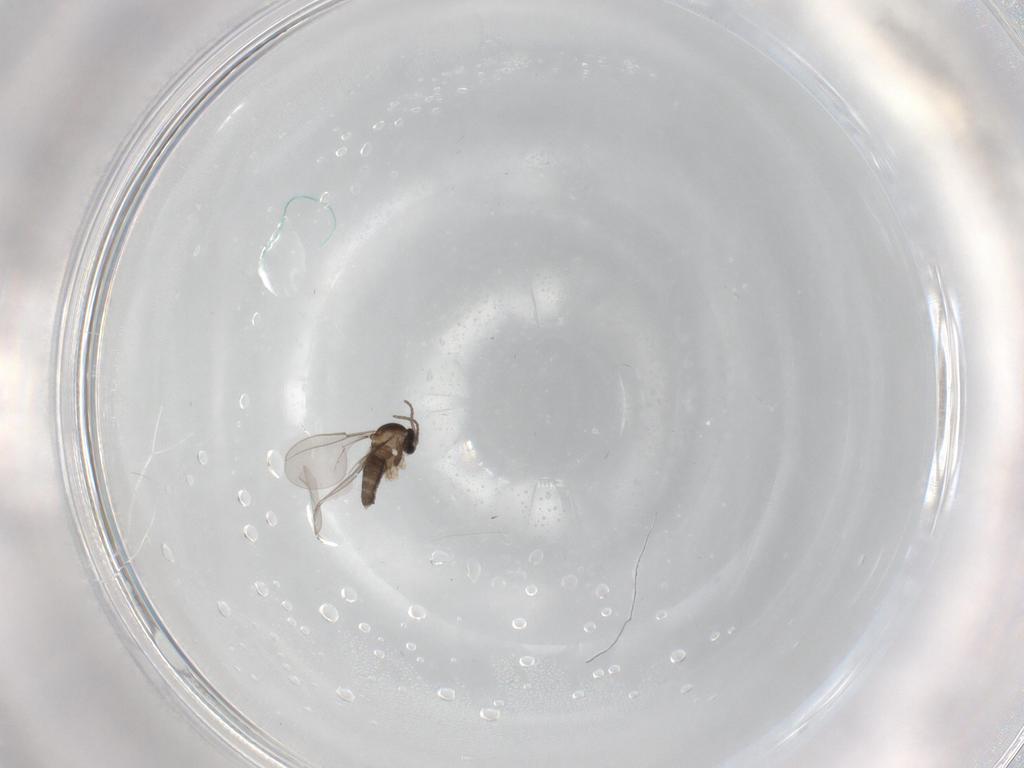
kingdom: Animalia
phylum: Arthropoda
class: Insecta
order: Diptera
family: Cecidomyiidae
